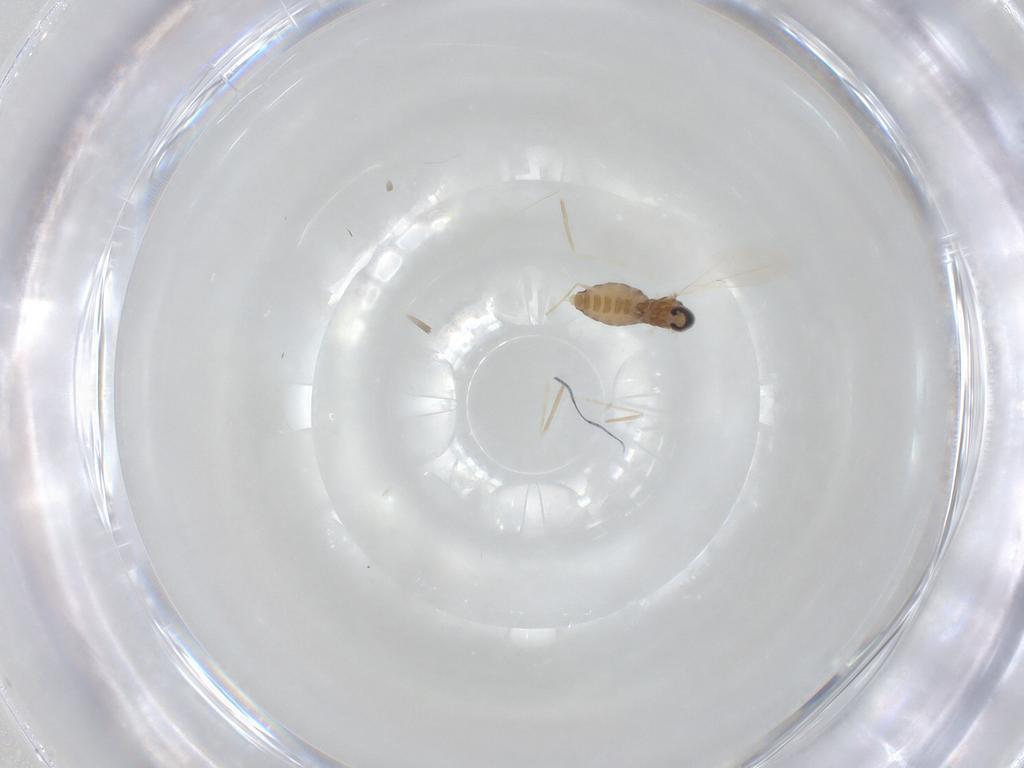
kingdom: Animalia
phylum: Arthropoda
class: Insecta
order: Diptera
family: Cecidomyiidae
